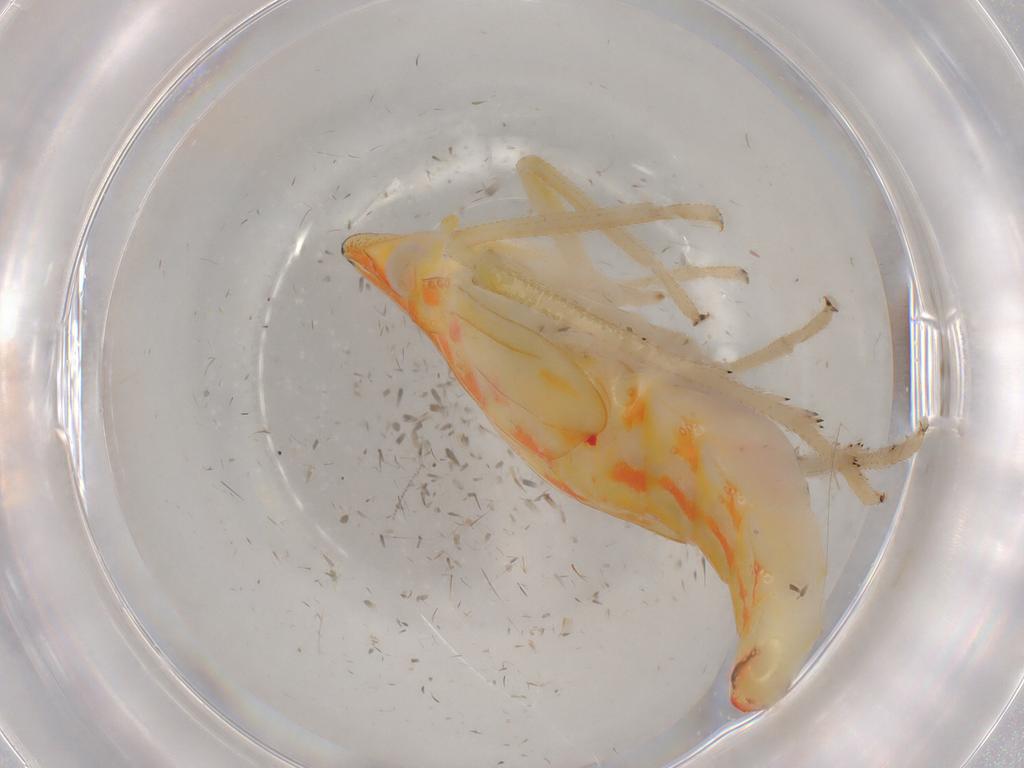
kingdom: Animalia
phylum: Arthropoda
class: Insecta
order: Hemiptera
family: Tropiduchidae
